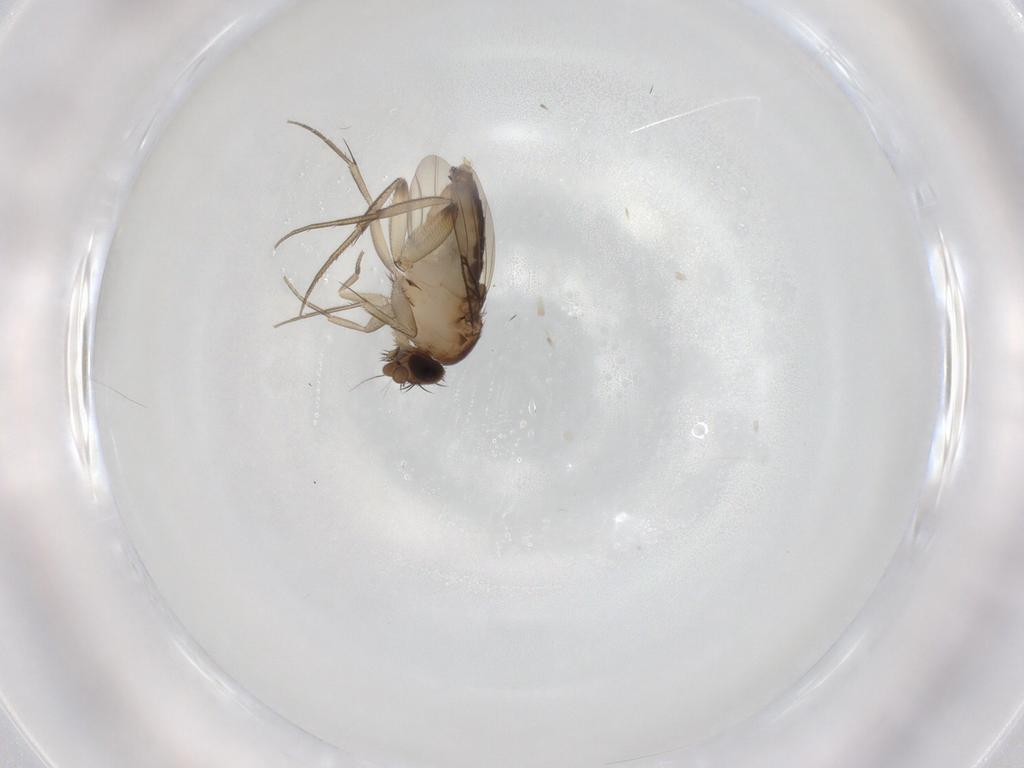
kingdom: Animalia
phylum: Arthropoda
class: Insecta
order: Diptera
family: Phoridae
